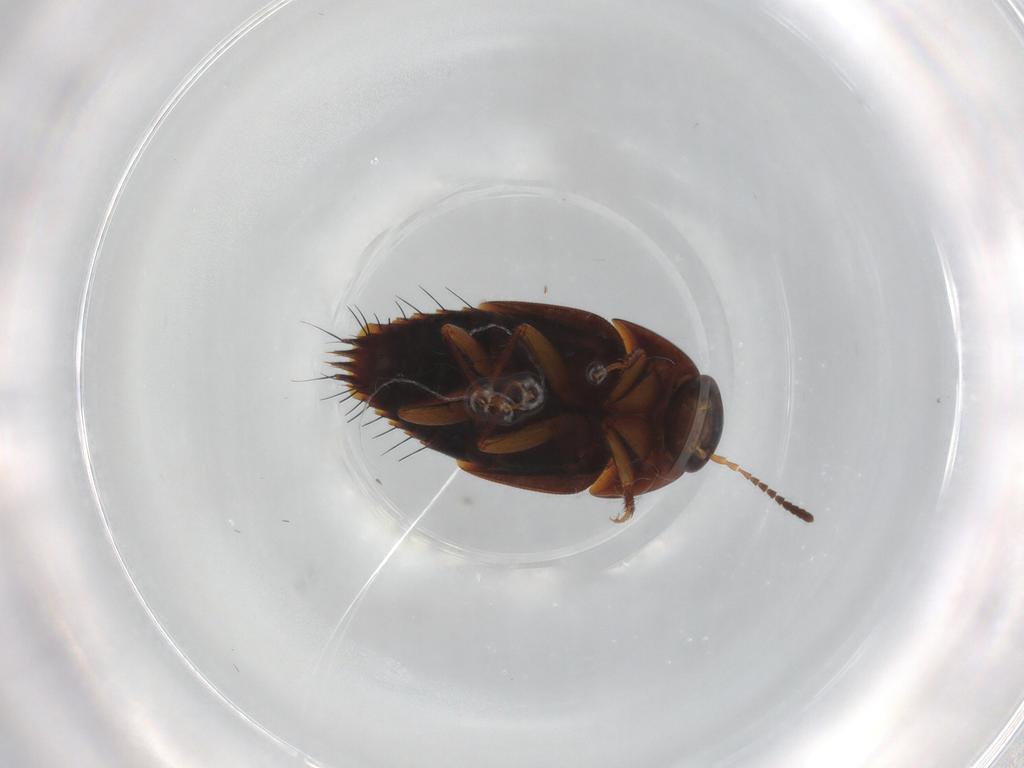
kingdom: Animalia
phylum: Arthropoda
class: Insecta
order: Coleoptera
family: Staphylinidae
